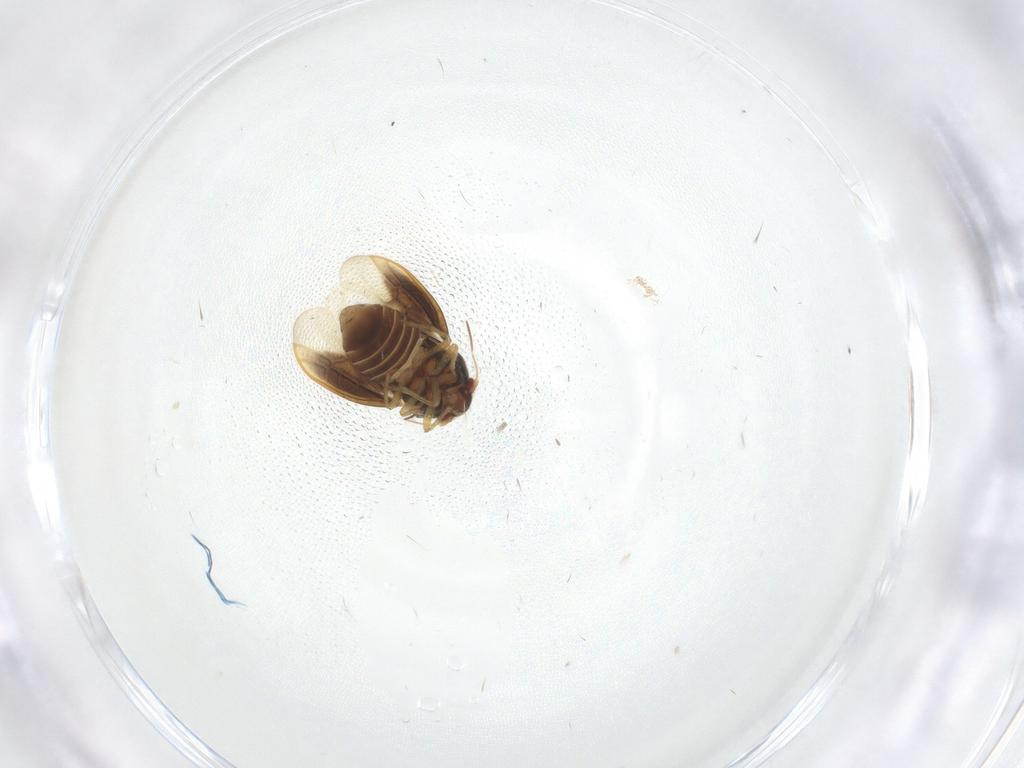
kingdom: Animalia
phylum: Arthropoda
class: Insecta
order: Hemiptera
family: Schizopteridae
